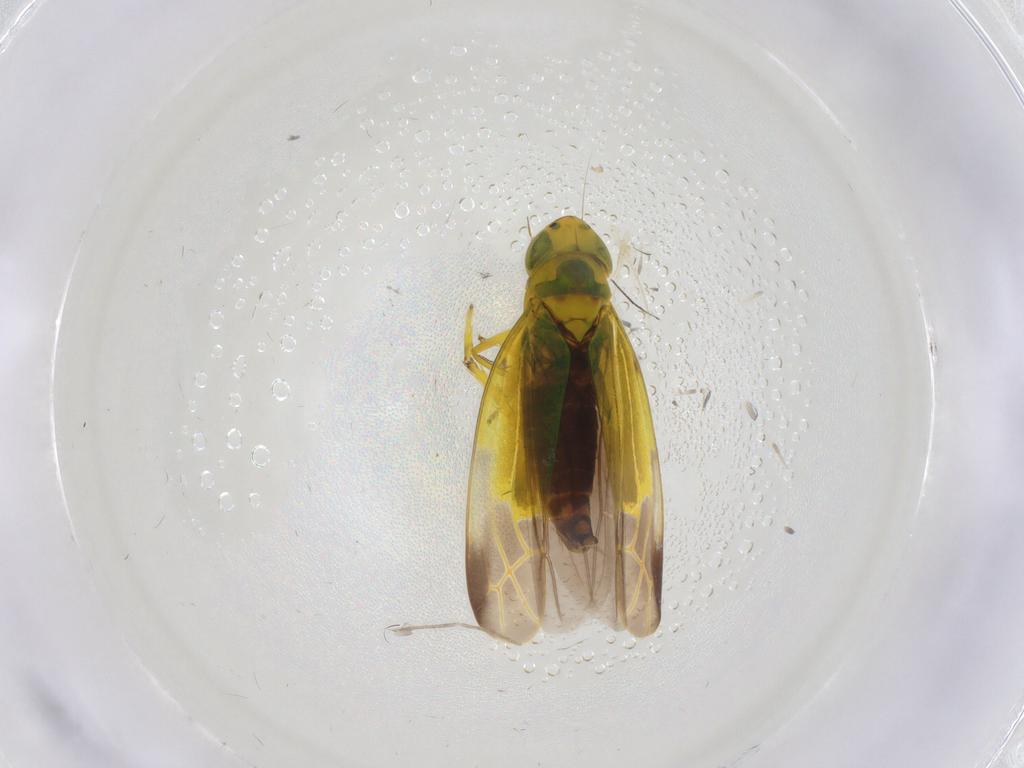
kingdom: Animalia
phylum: Arthropoda
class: Insecta
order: Hemiptera
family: Cicadellidae
